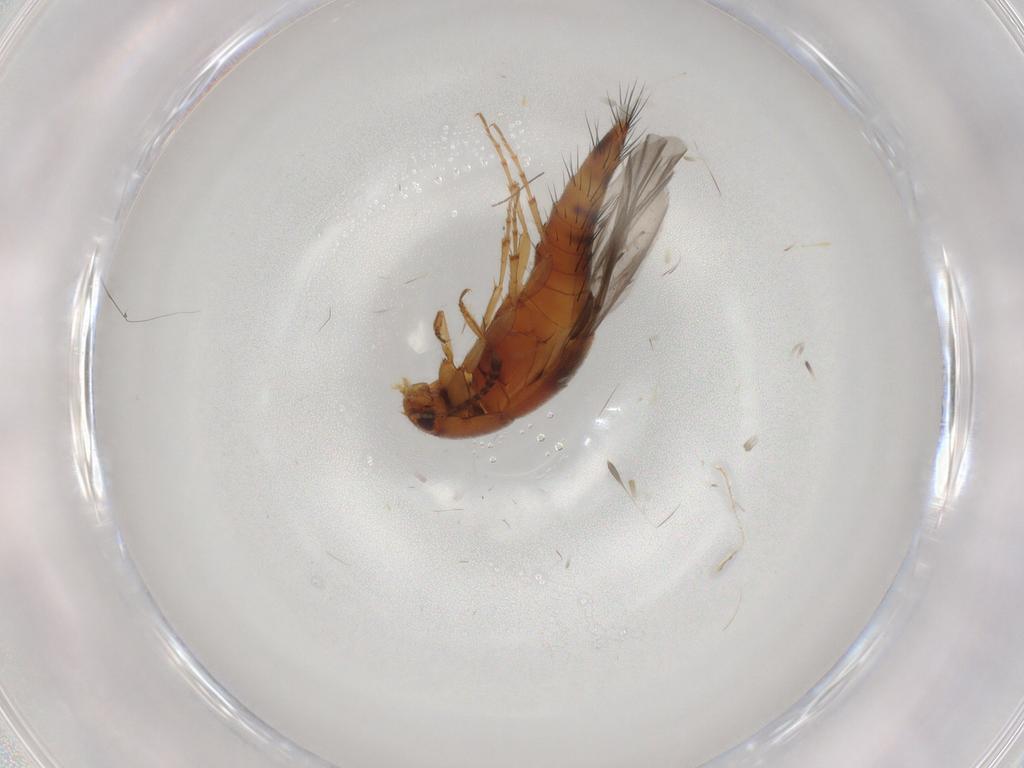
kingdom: Animalia
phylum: Arthropoda
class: Insecta
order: Coleoptera
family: Staphylinidae
